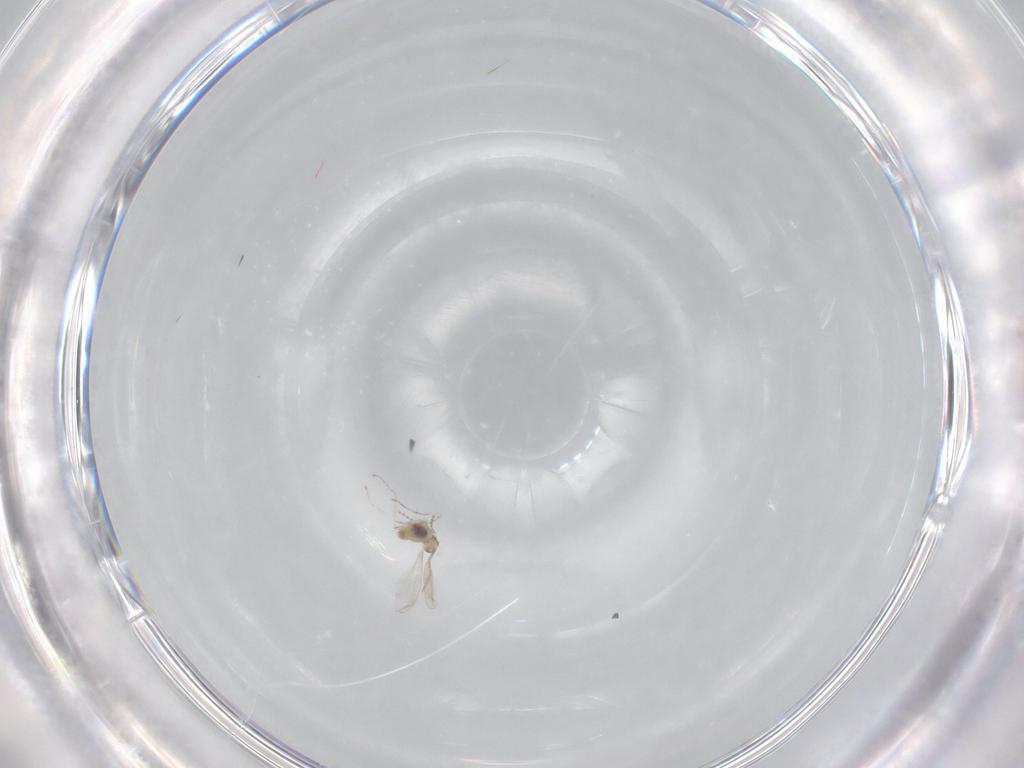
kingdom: Animalia
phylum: Arthropoda
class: Insecta
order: Diptera
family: Cecidomyiidae
